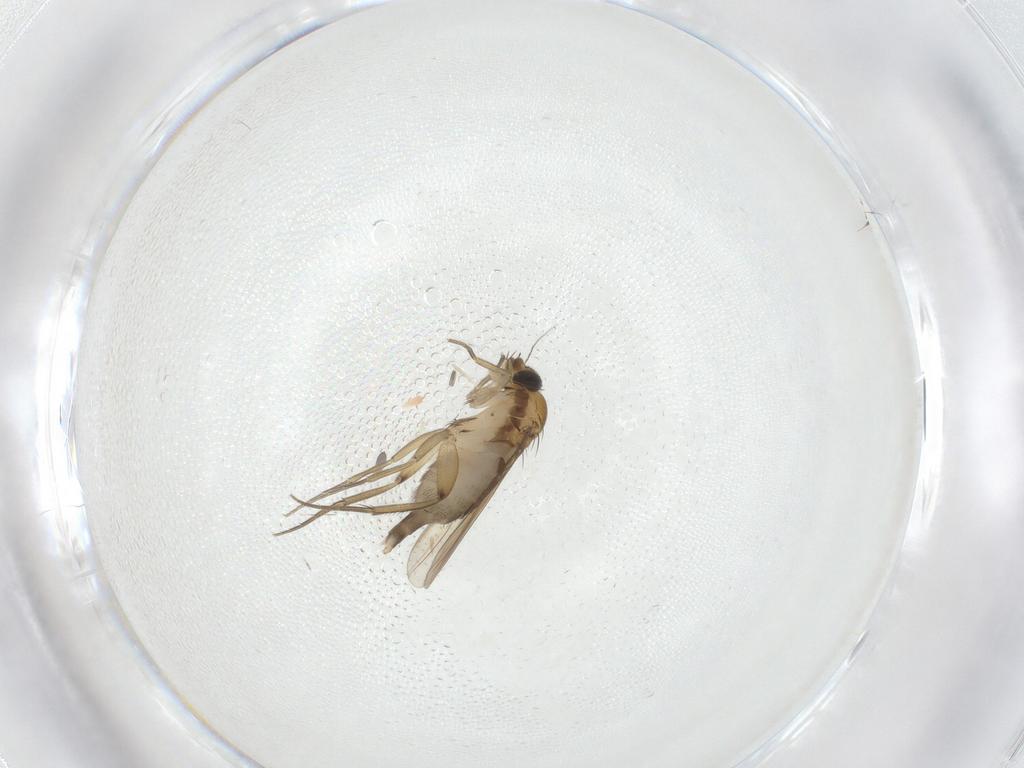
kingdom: Animalia
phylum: Arthropoda
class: Insecta
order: Diptera
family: Phoridae
